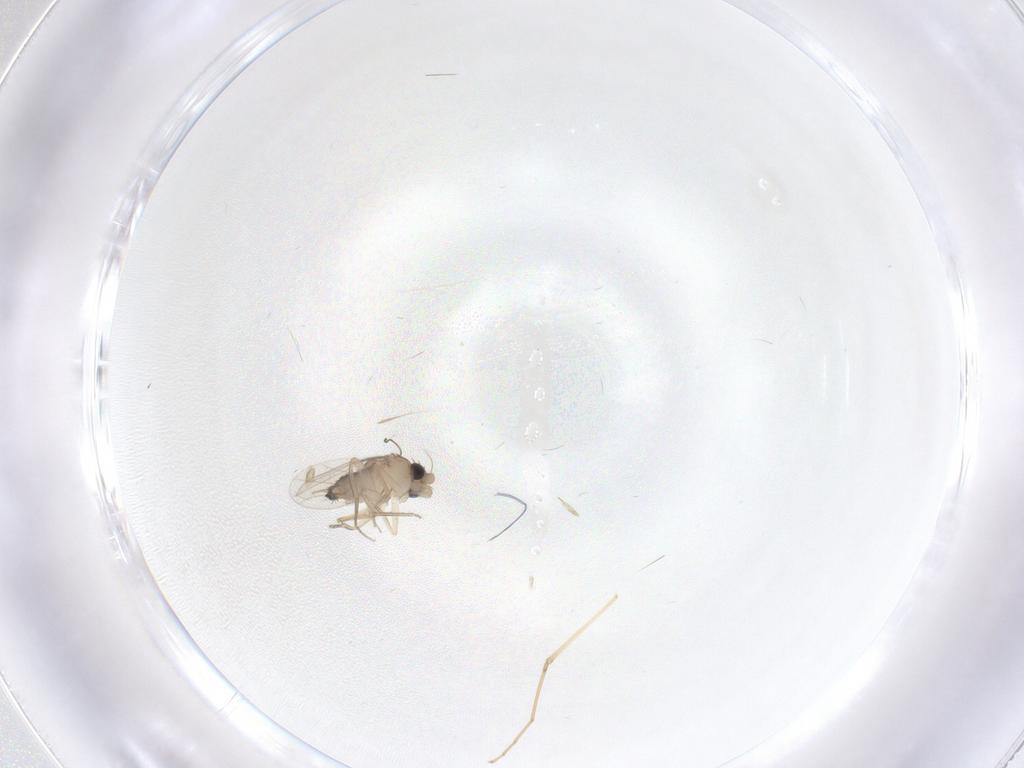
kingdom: Animalia
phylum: Arthropoda
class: Insecta
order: Diptera
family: Phoridae
